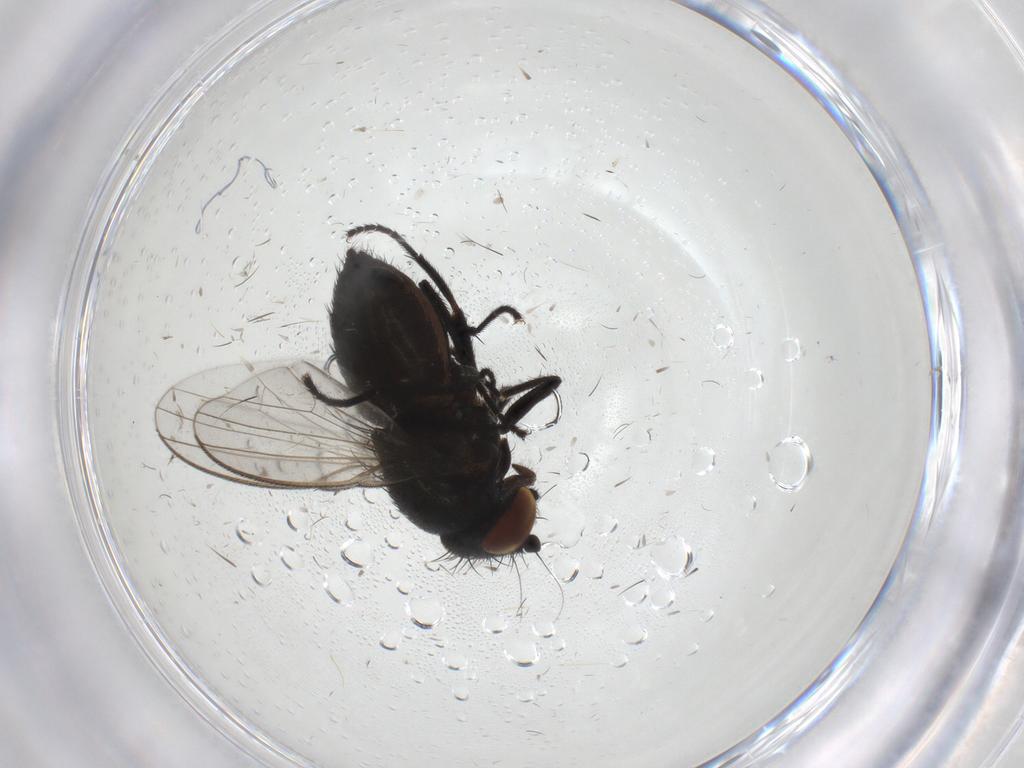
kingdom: Animalia
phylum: Arthropoda
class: Insecta
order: Diptera
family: Milichiidae
